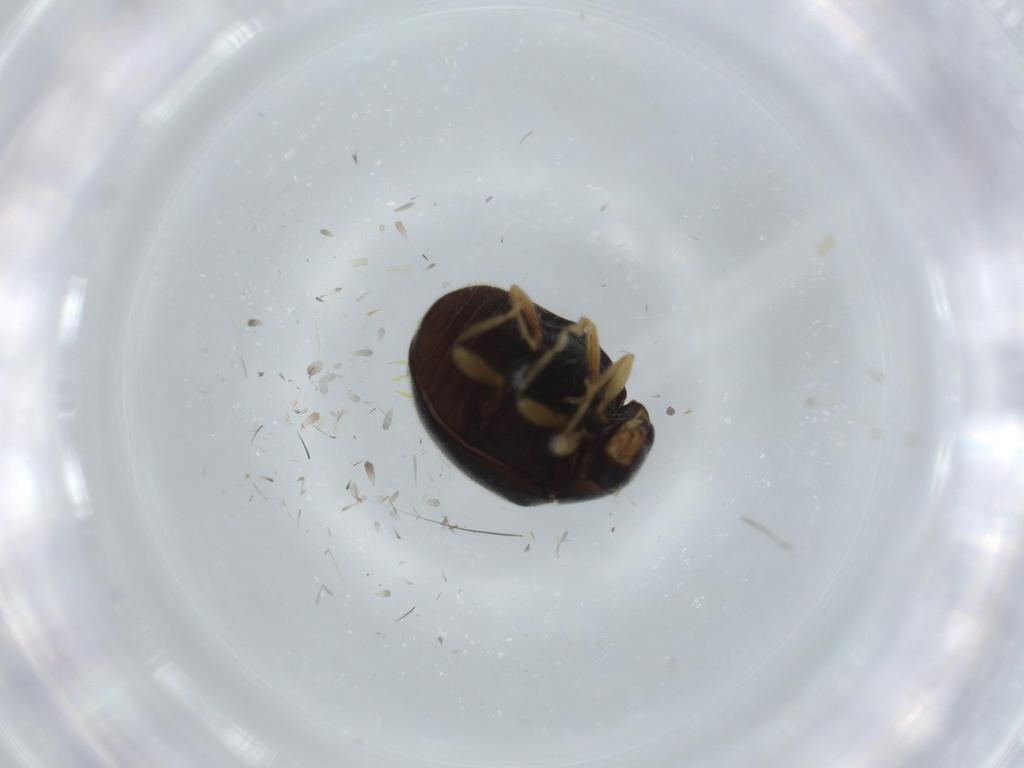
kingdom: Animalia
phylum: Arthropoda
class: Insecta
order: Coleoptera
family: Coccinellidae
